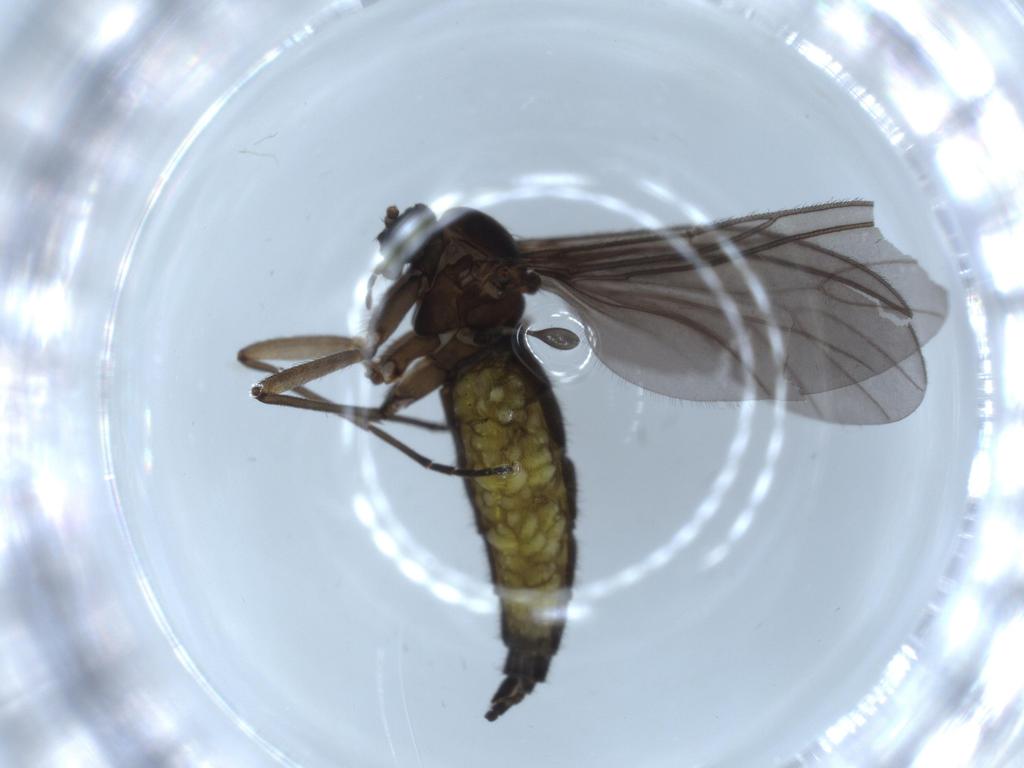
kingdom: Animalia
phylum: Arthropoda
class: Insecta
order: Diptera
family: Sciaridae
